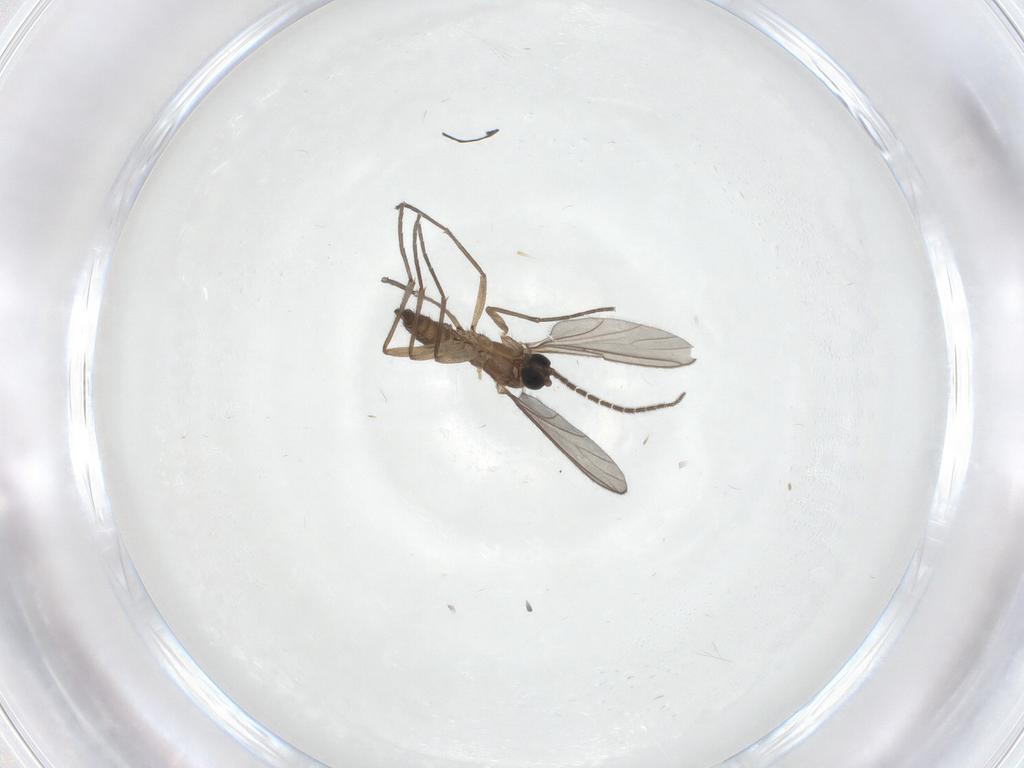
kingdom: Animalia
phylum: Arthropoda
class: Insecta
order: Diptera
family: Sciaridae
